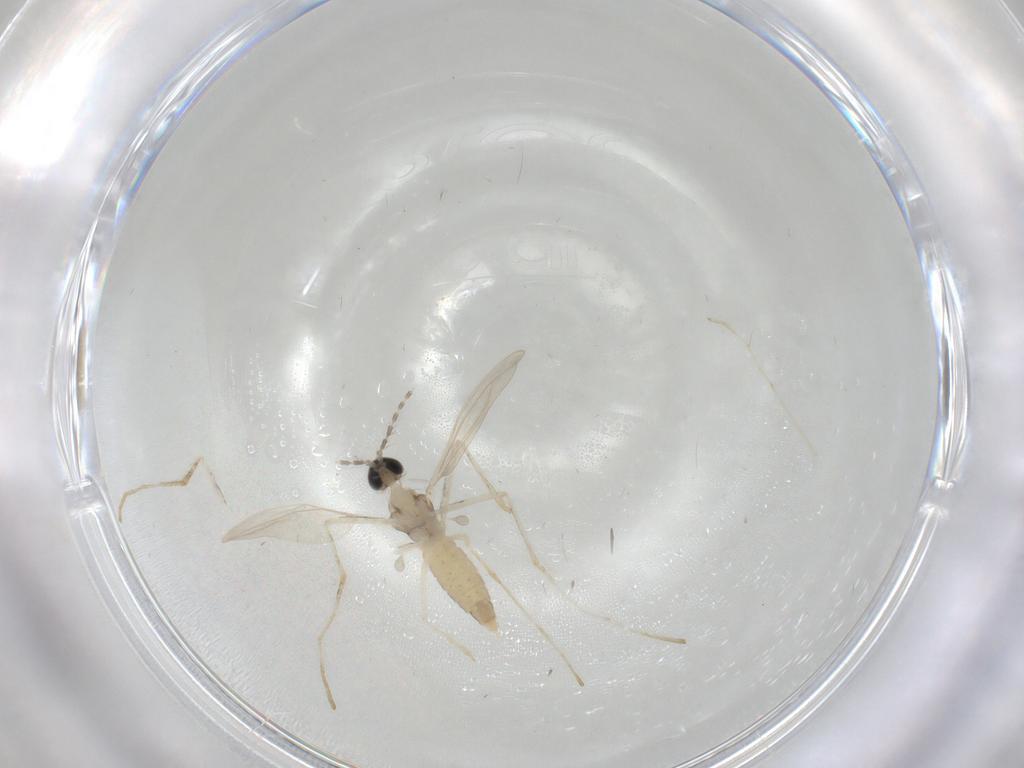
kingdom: Animalia
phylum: Arthropoda
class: Insecta
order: Diptera
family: Cecidomyiidae
